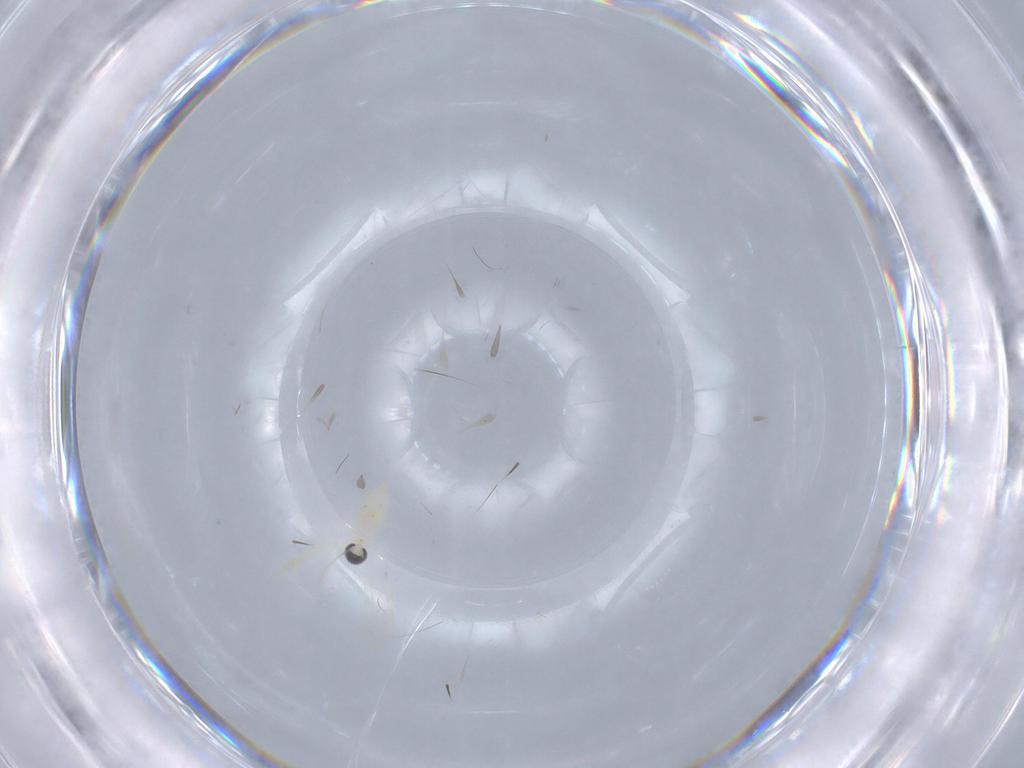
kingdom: Animalia
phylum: Arthropoda
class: Insecta
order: Diptera
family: Cecidomyiidae
